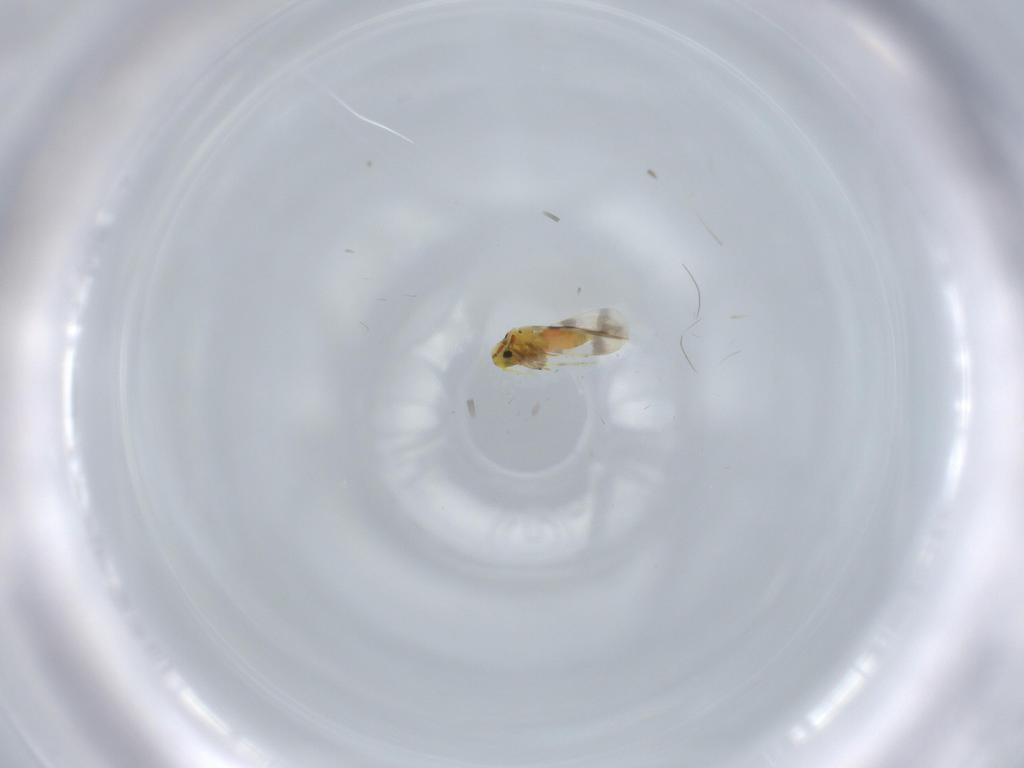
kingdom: Animalia
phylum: Arthropoda
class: Insecta
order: Hemiptera
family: Aleyrodidae
